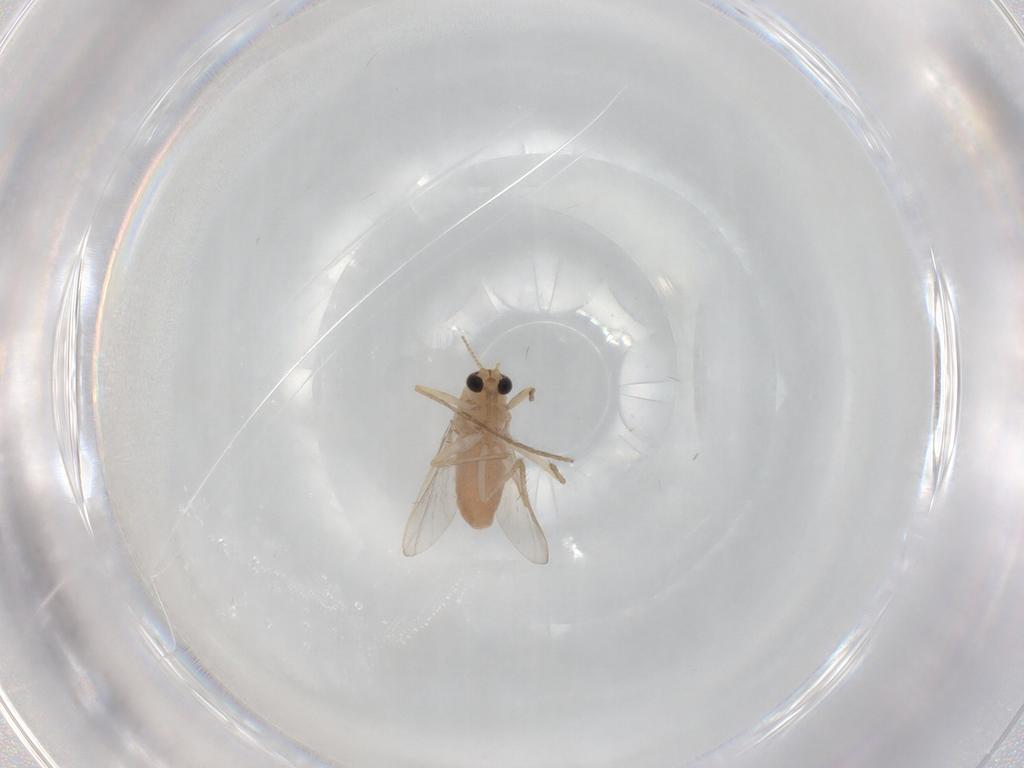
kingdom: Animalia
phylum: Arthropoda
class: Insecta
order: Diptera
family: Chironomidae
